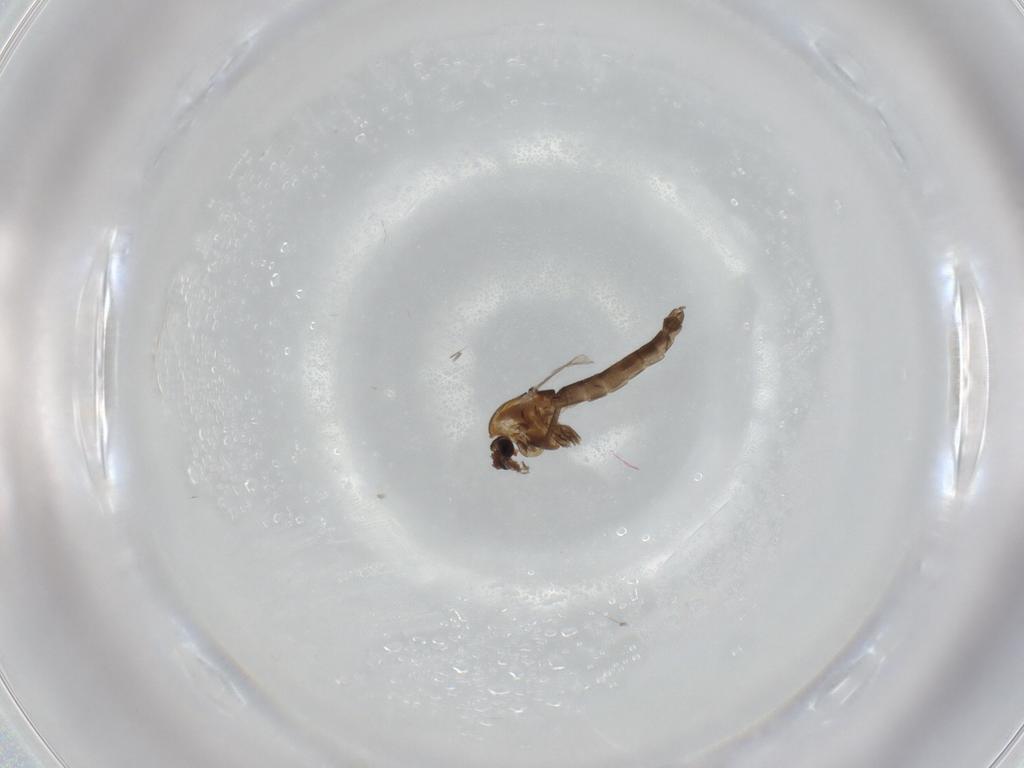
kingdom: Animalia
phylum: Arthropoda
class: Insecta
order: Diptera
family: Chironomidae
